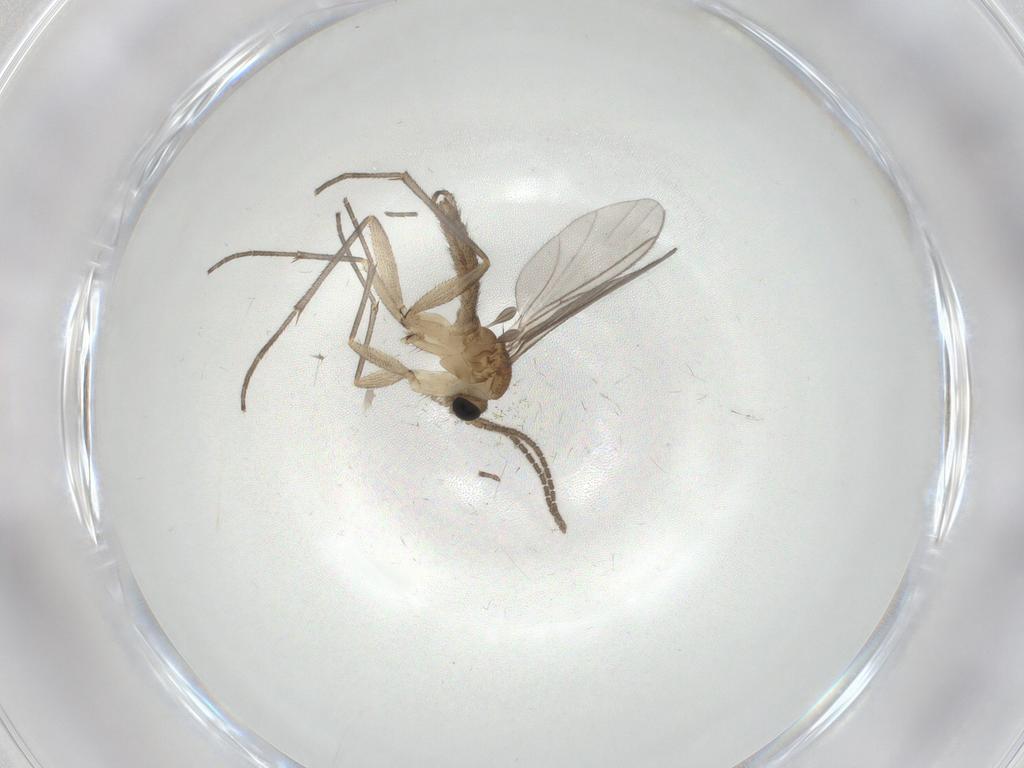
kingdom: Animalia
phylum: Arthropoda
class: Insecta
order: Diptera
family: Sciaridae
